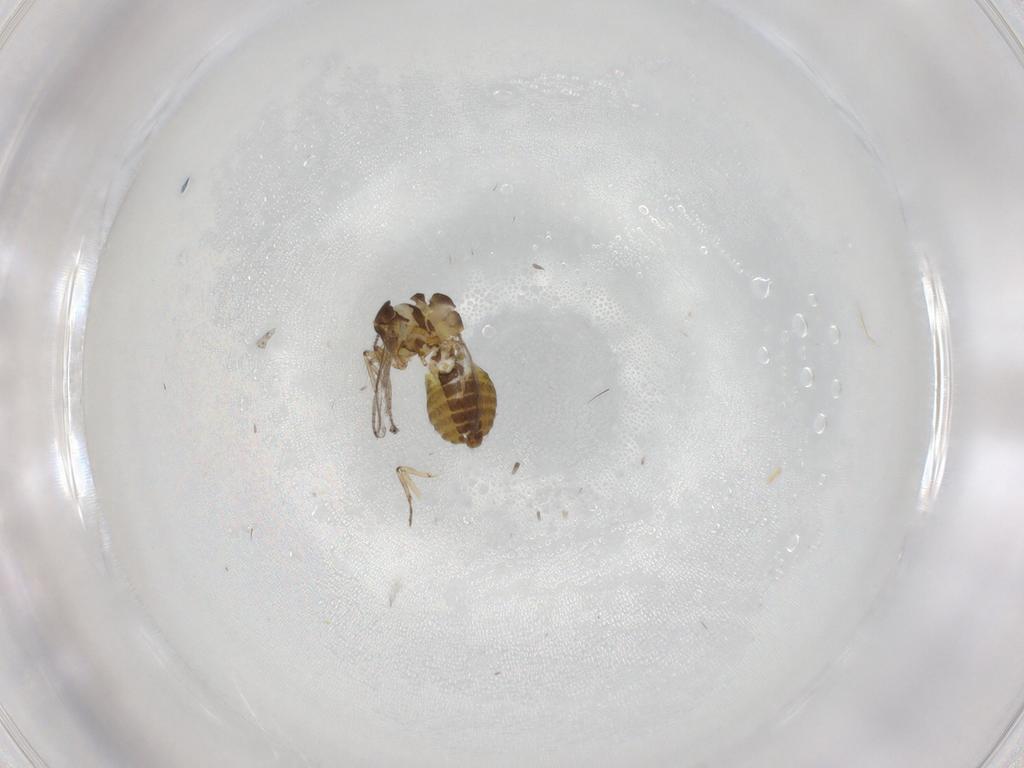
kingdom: Animalia
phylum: Arthropoda
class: Insecta
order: Diptera
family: Ceratopogonidae
